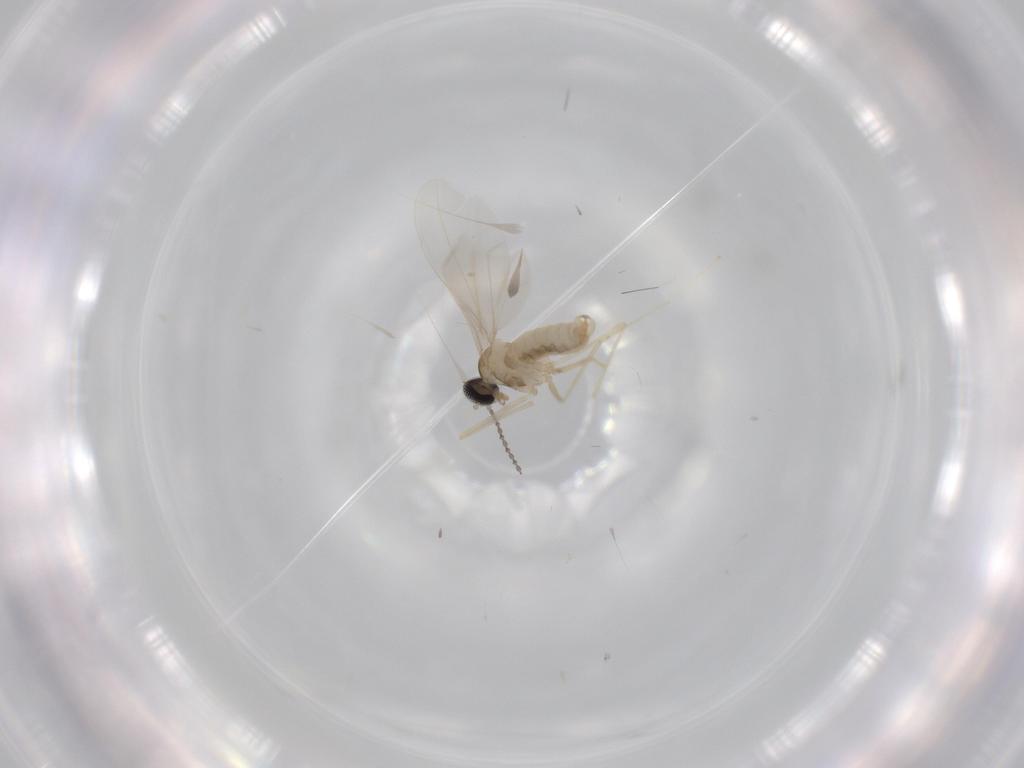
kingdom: Animalia
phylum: Arthropoda
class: Insecta
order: Diptera
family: Cecidomyiidae
